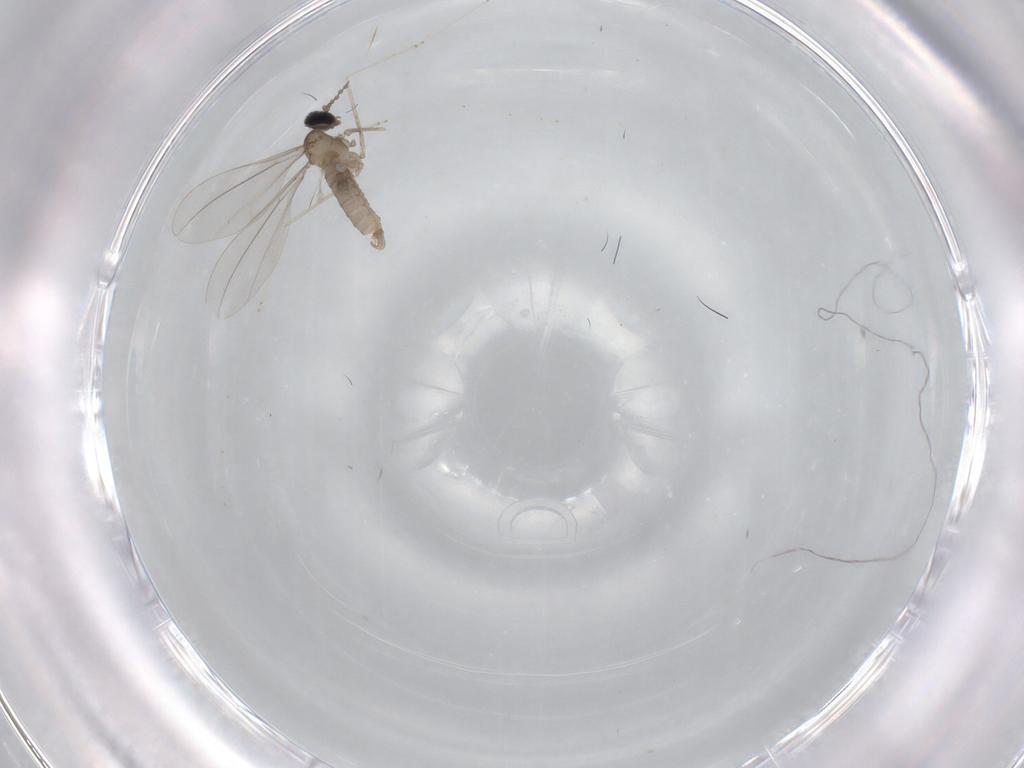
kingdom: Animalia
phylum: Arthropoda
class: Insecta
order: Diptera
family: Cecidomyiidae
